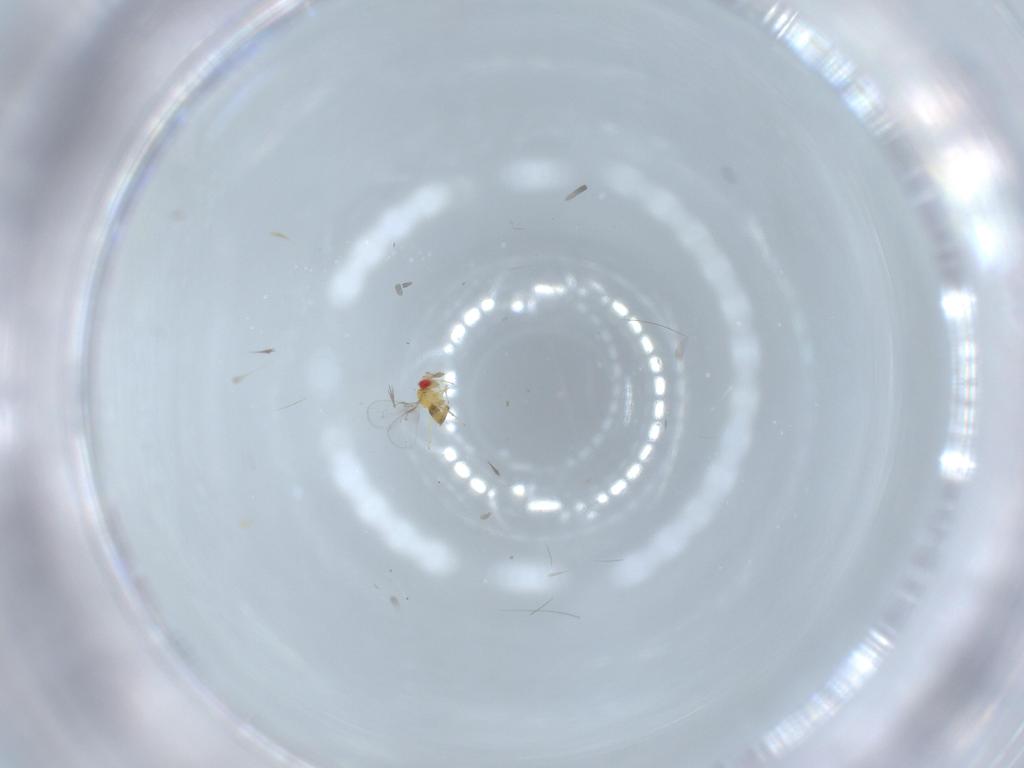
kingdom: Animalia
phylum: Arthropoda
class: Insecta
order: Hymenoptera
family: Trichogrammatidae
